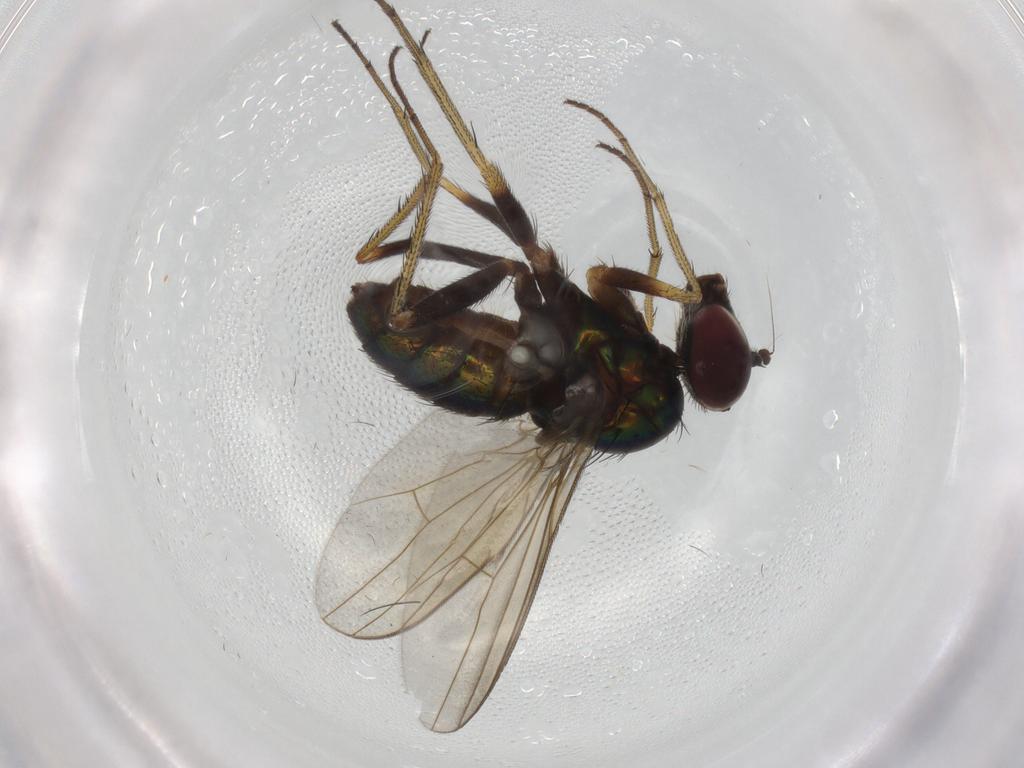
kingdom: Animalia
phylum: Arthropoda
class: Insecta
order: Diptera
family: Dolichopodidae
